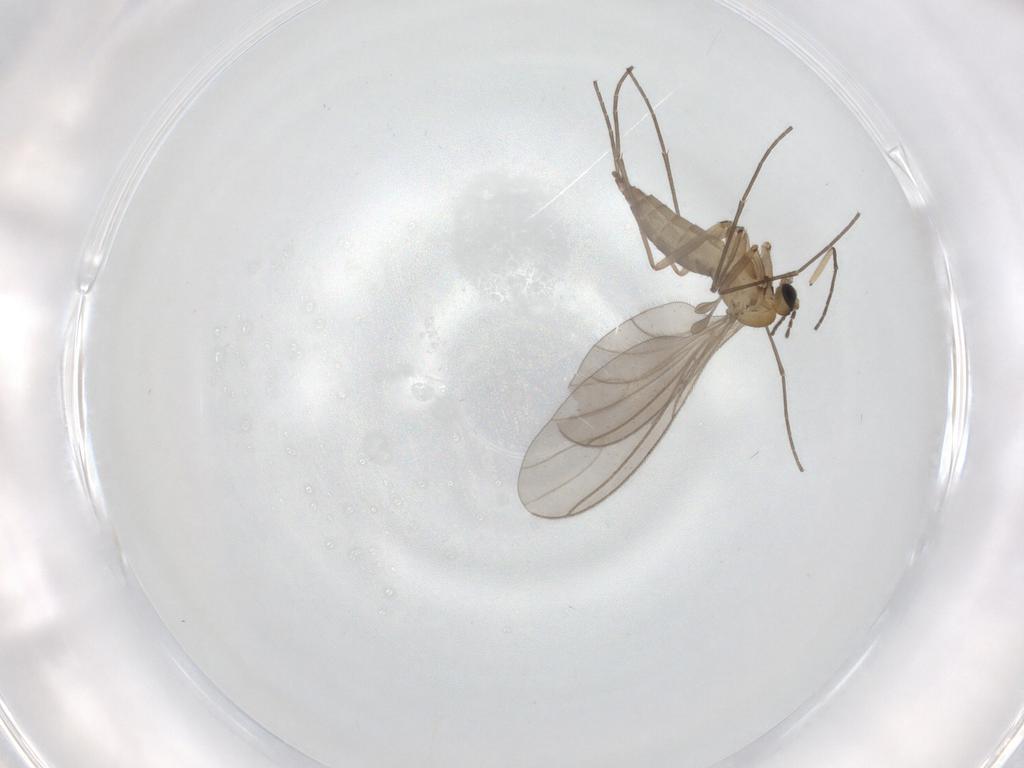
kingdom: Animalia
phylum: Arthropoda
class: Insecta
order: Diptera
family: Sciaridae
